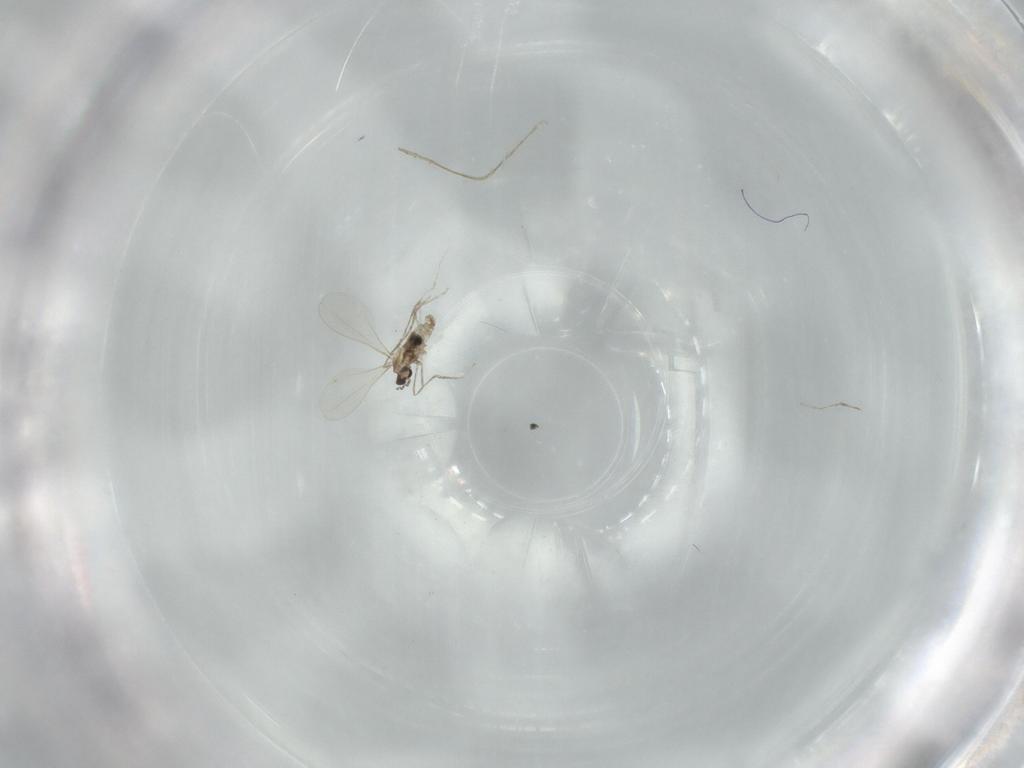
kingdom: Animalia
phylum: Arthropoda
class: Insecta
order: Diptera
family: Cecidomyiidae
